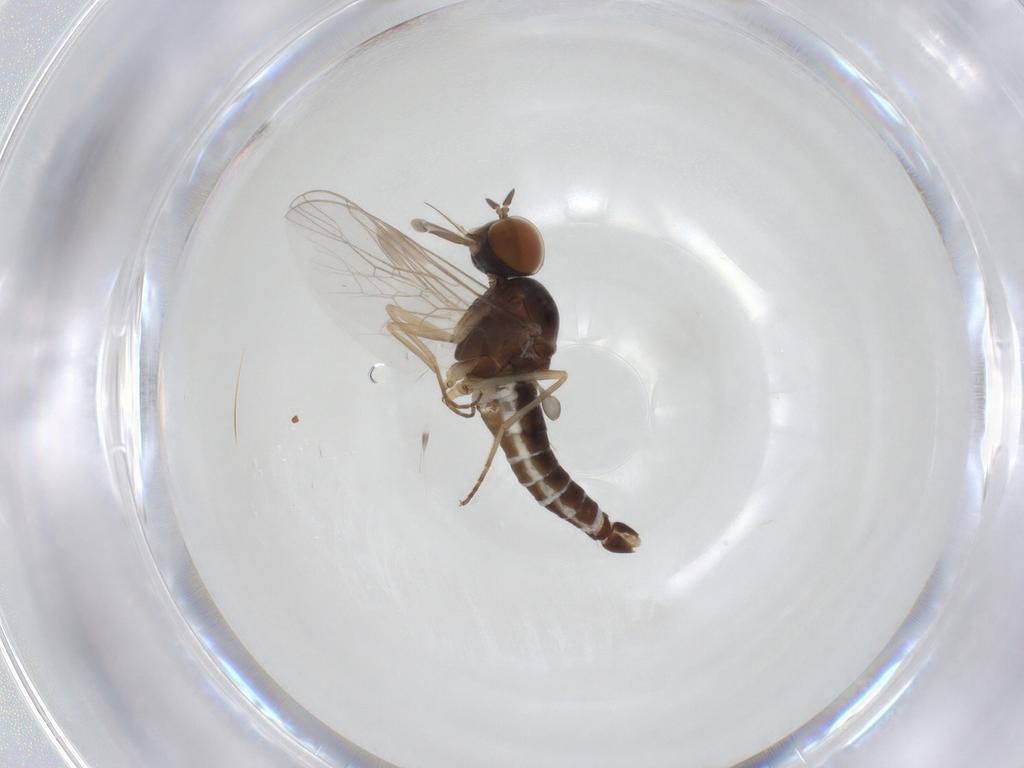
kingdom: Animalia
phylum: Arthropoda
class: Insecta
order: Diptera
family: Scenopinidae
